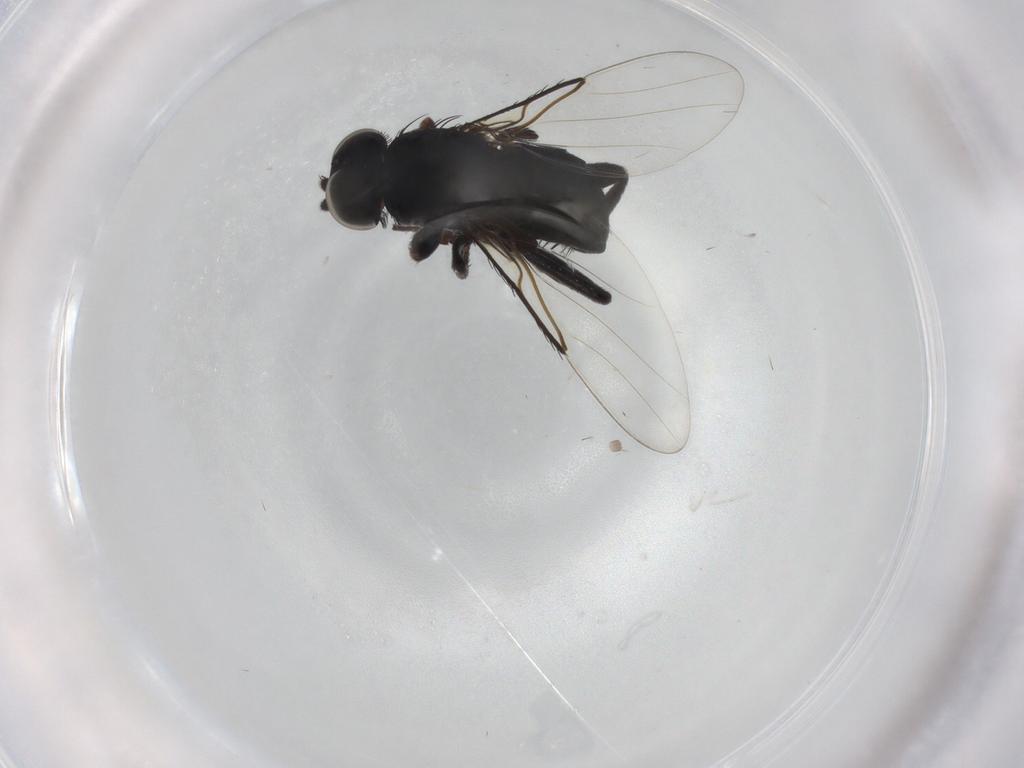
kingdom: Animalia
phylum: Arthropoda
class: Insecta
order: Diptera
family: Phoridae
